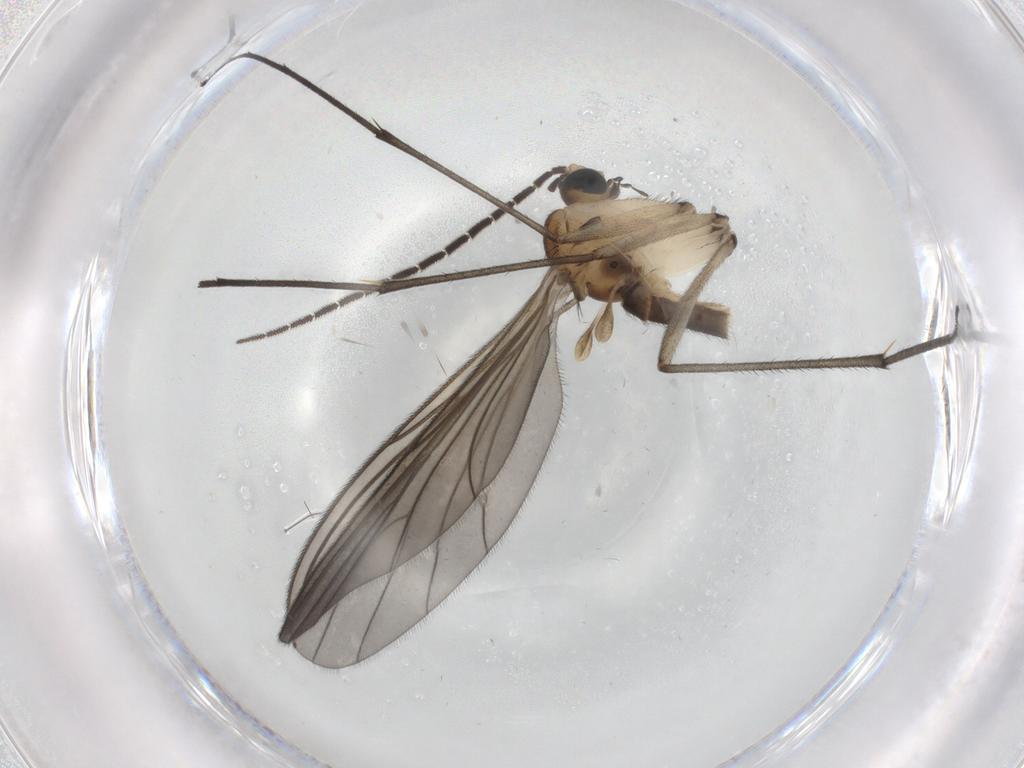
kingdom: Animalia
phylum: Arthropoda
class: Insecta
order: Diptera
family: Sciaridae
